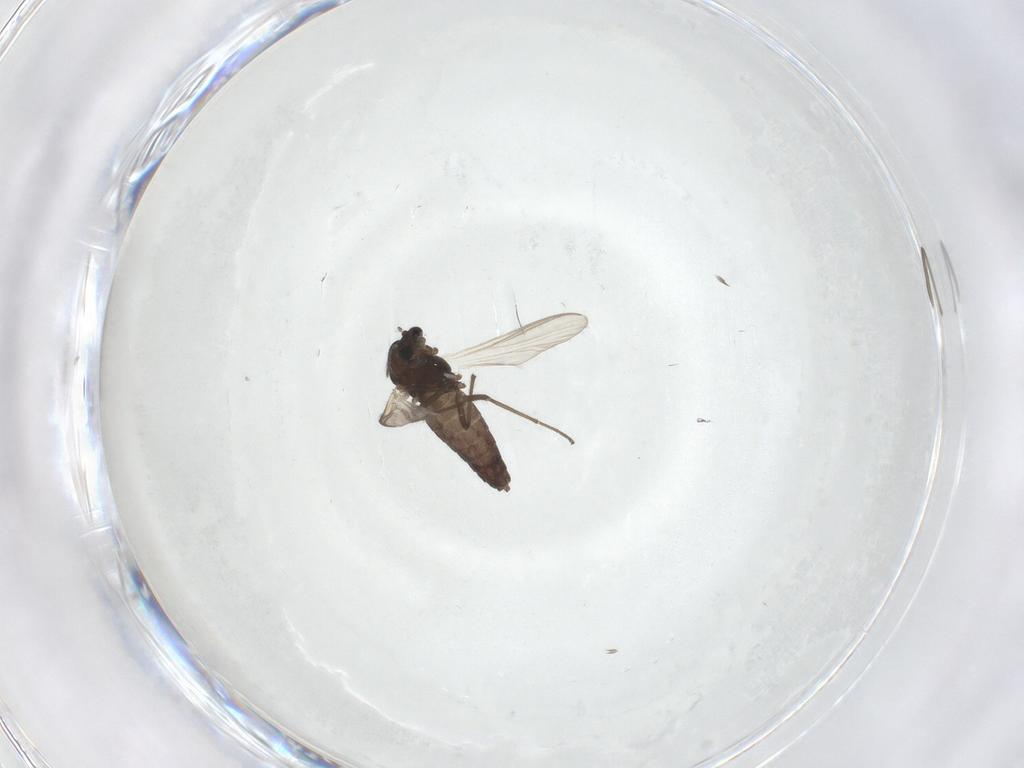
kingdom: Animalia
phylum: Arthropoda
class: Insecta
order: Diptera
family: Chironomidae
